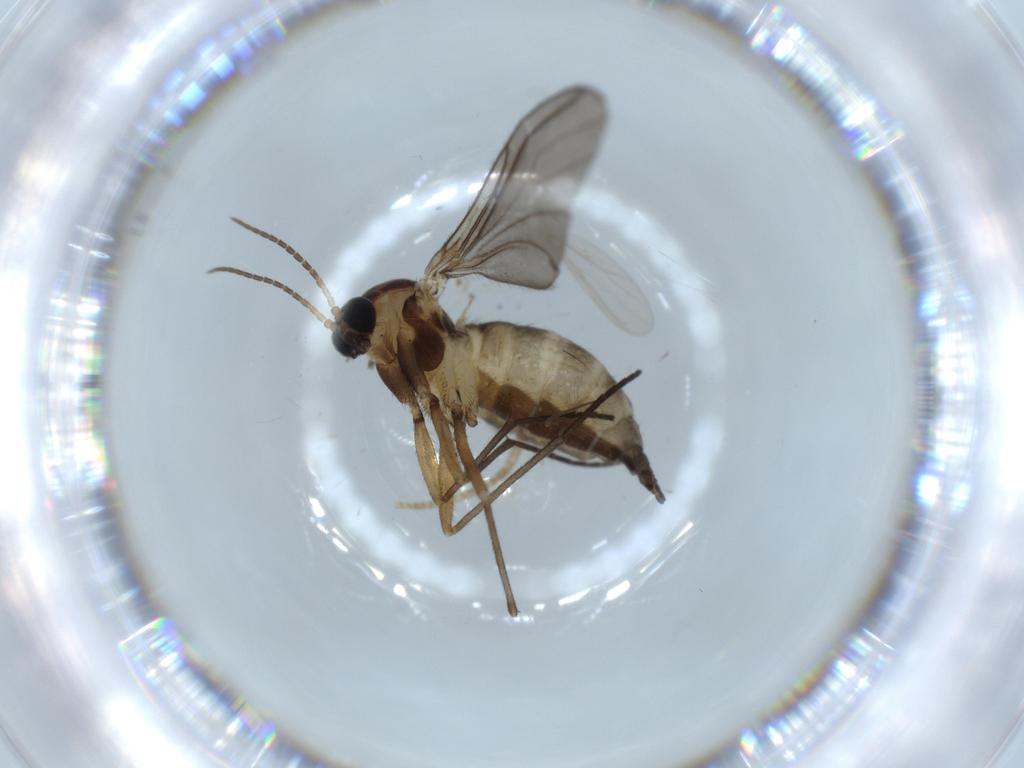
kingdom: Animalia
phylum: Arthropoda
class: Insecta
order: Diptera
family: Sciaridae
